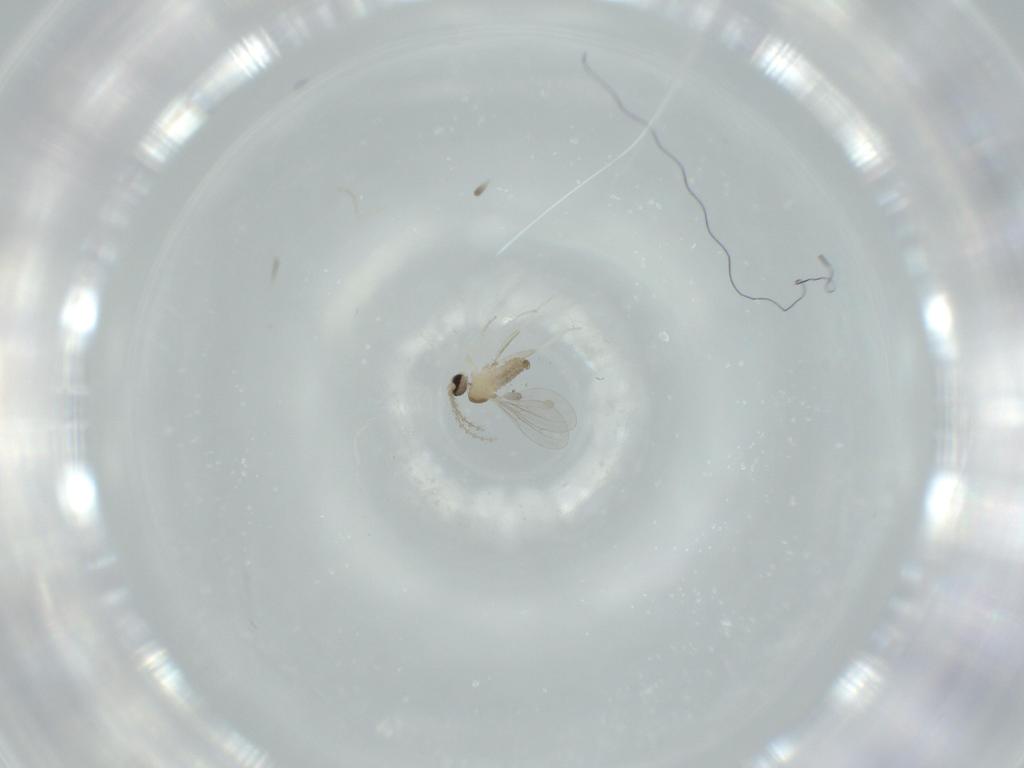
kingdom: Animalia
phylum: Arthropoda
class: Insecta
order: Diptera
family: Cecidomyiidae
